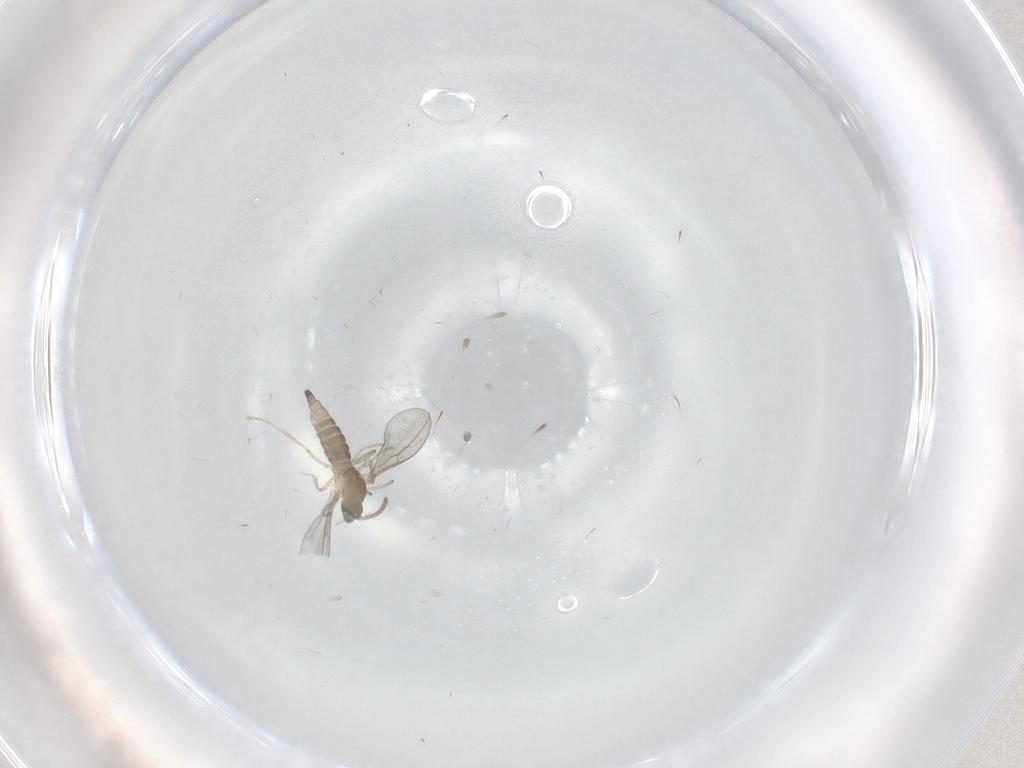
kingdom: Animalia
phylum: Arthropoda
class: Insecta
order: Diptera
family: Cecidomyiidae
